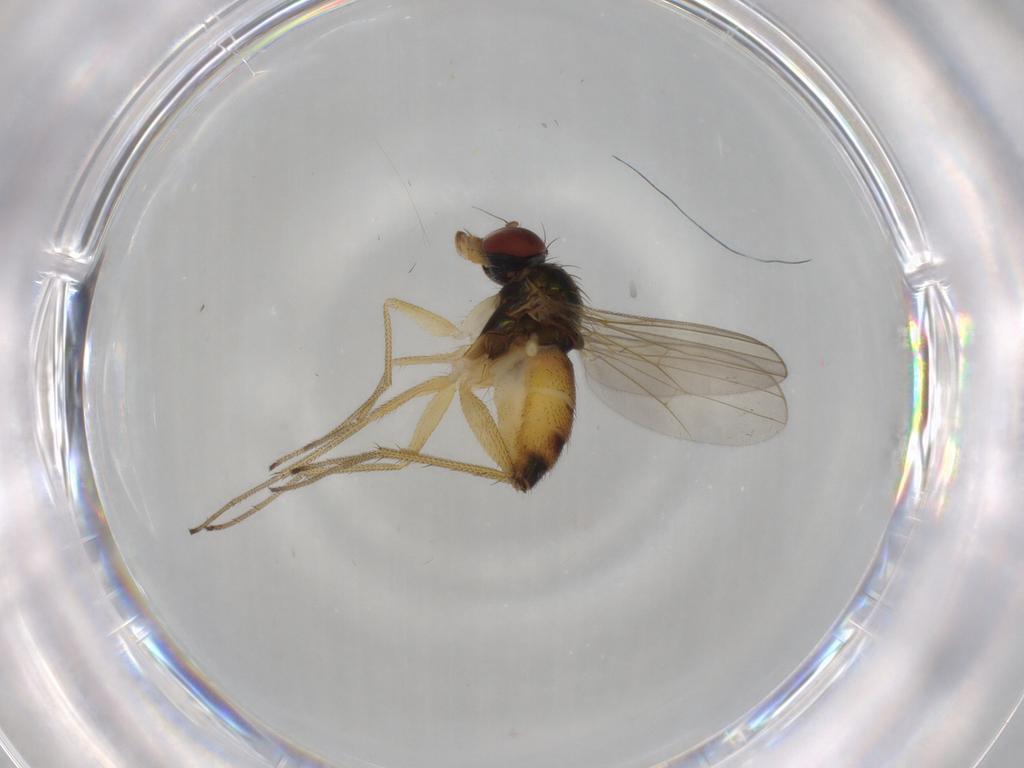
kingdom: Animalia
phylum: Arthropoda
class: Insecta
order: Diptera
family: Dolichopodidae
